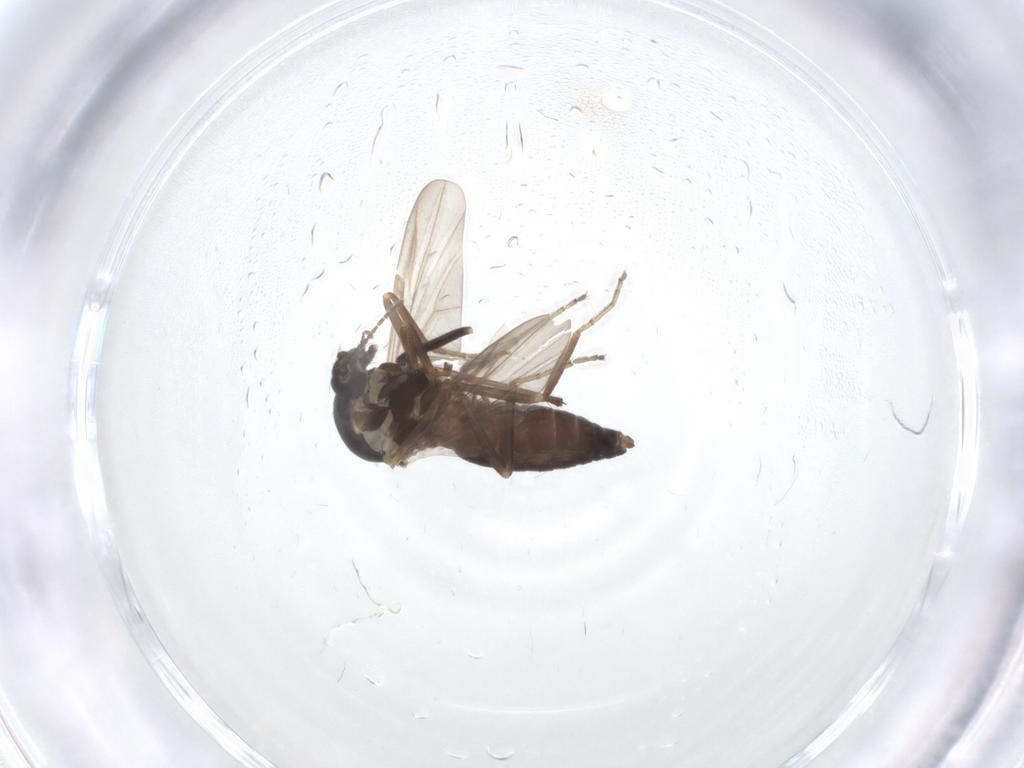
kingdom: Animalia
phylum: Arthropoda
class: Insecta
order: Diptera
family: Ceratopogonidae
